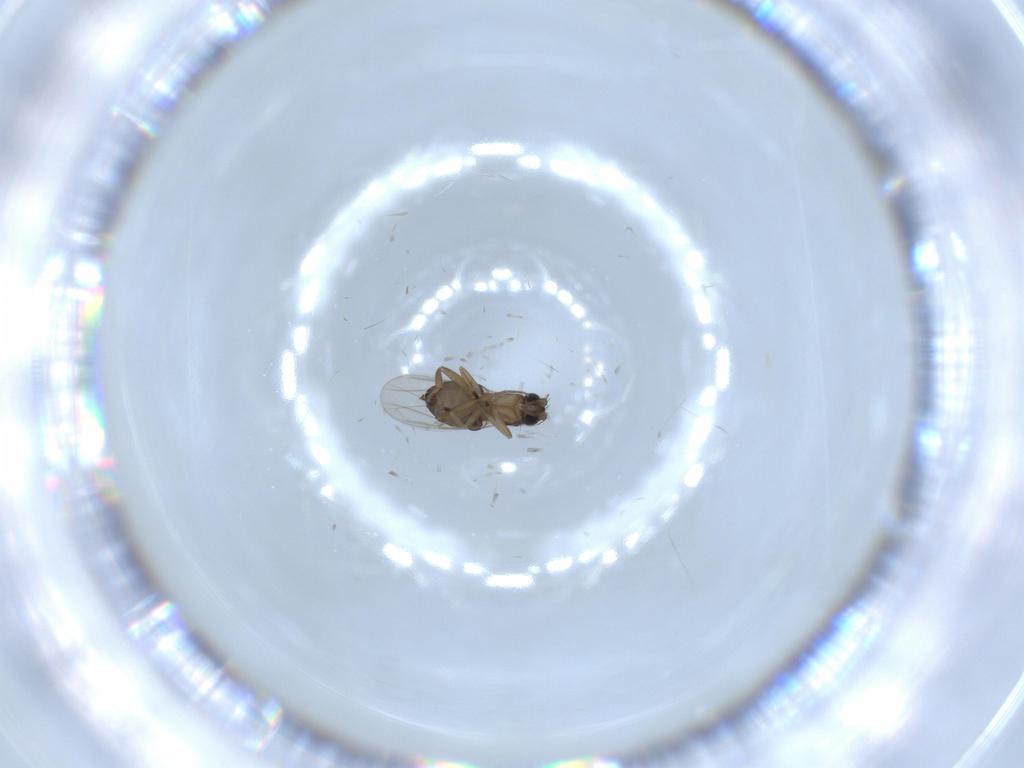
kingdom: Animalia
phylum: Arthropoda
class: Insecta
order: Diptera
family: Phoridae
